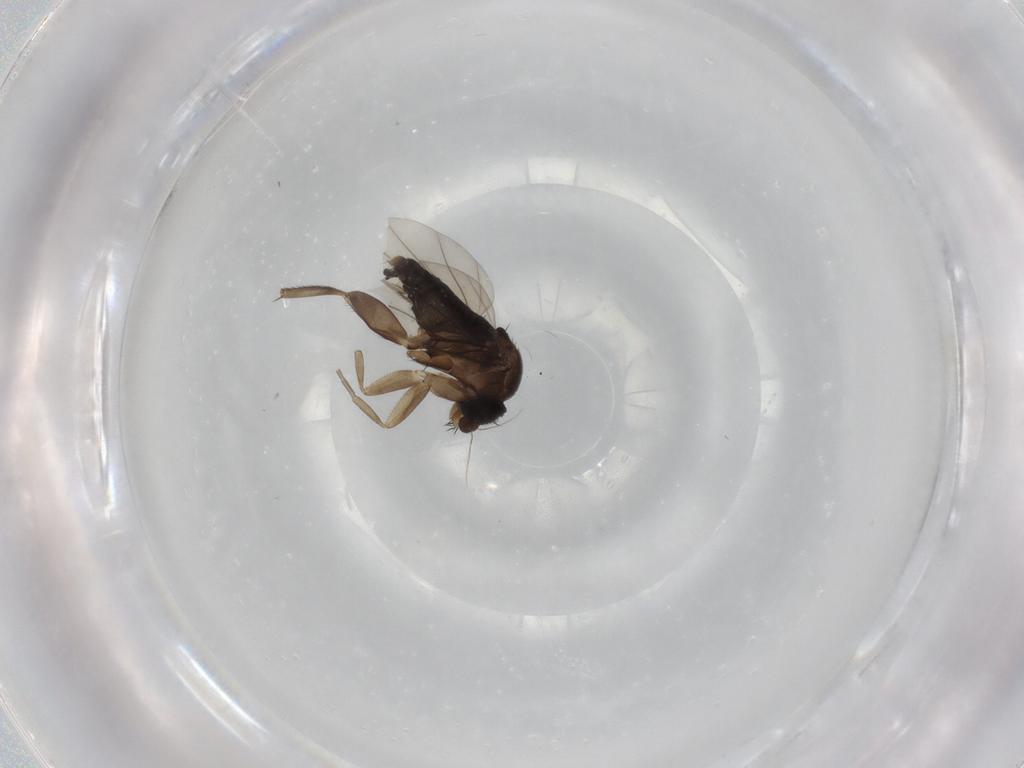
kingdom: Animalia
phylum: Arthropoda
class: Insecta
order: Diptera
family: Phoridae
